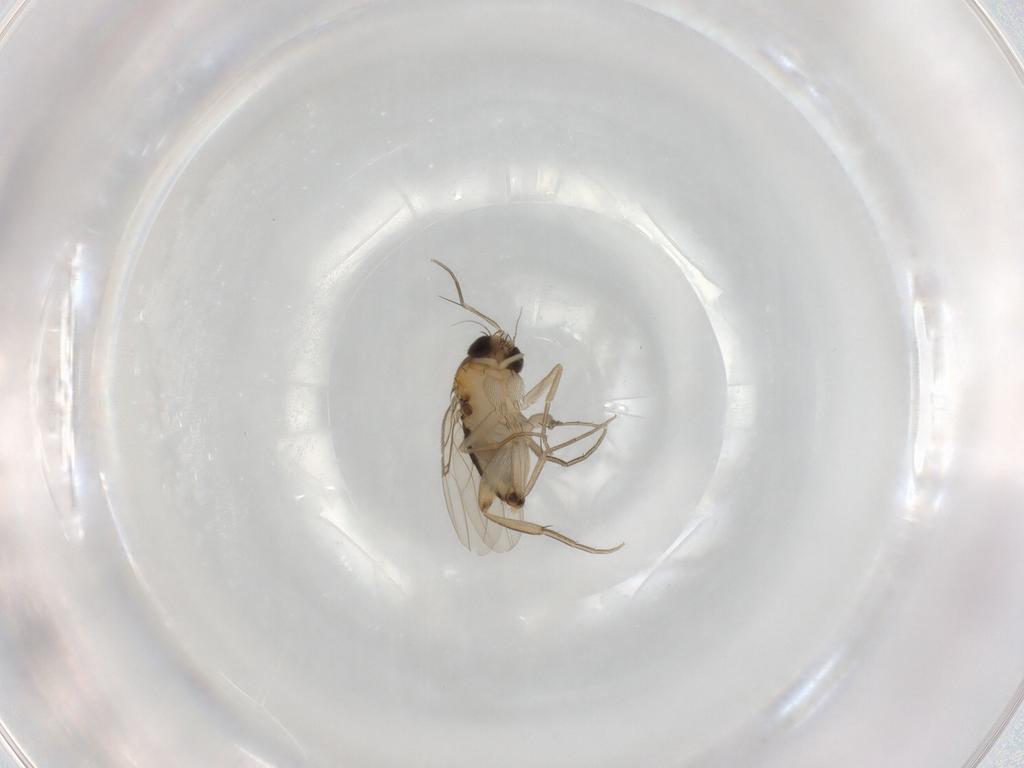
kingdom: Animalia
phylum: Arthropoda
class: Insecta
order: Diptera
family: Phoridae
